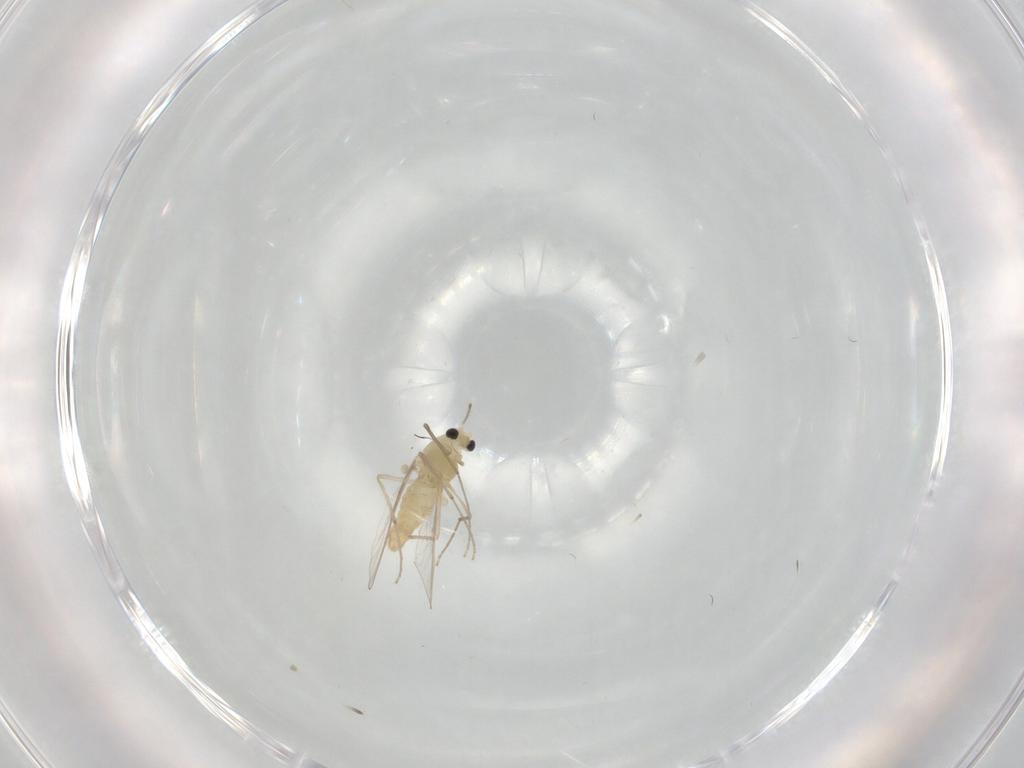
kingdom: Animalia
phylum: Arthropoda
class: Insecta
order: Diptera
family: Chironomidae
